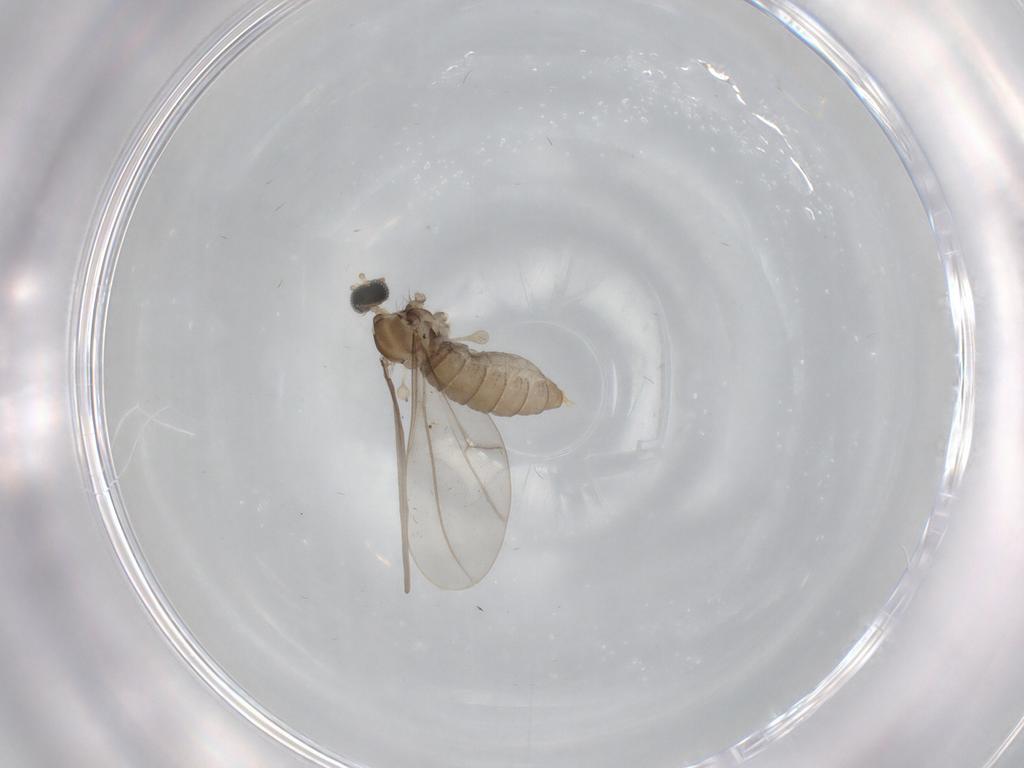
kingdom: Animalia
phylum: Arthropoda
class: Insecta
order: Diptera
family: Cecidomyiidae
